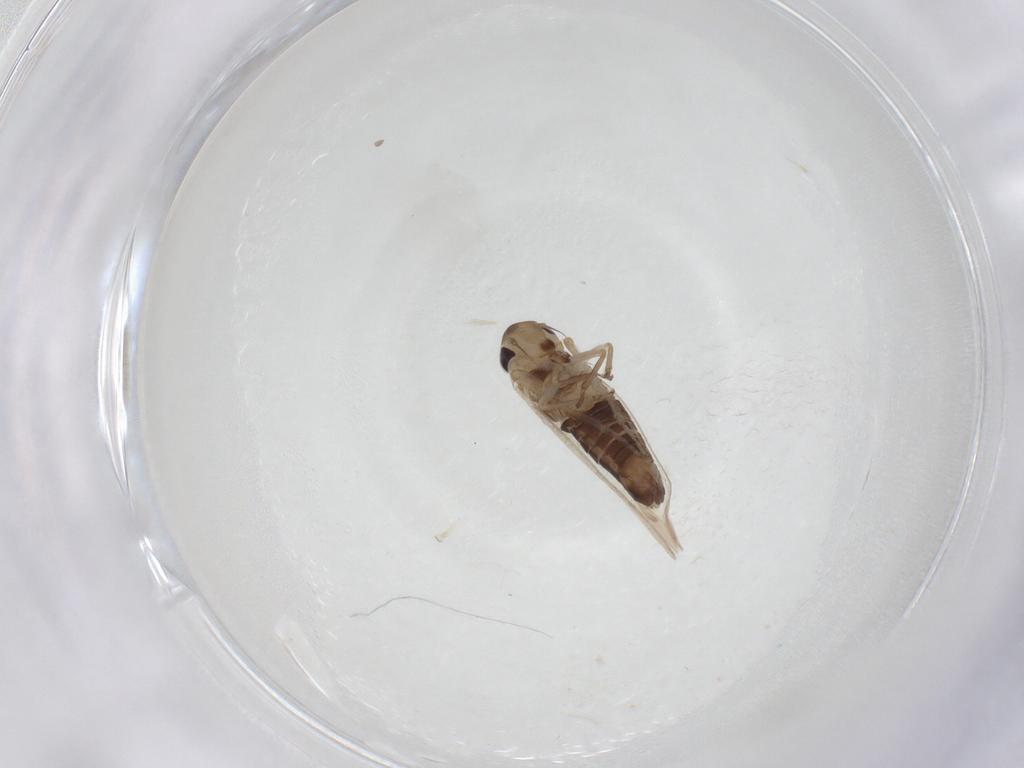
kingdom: Animalia
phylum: Arthropoda
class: Insecta
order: Hemiptera
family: Cicadellidae
